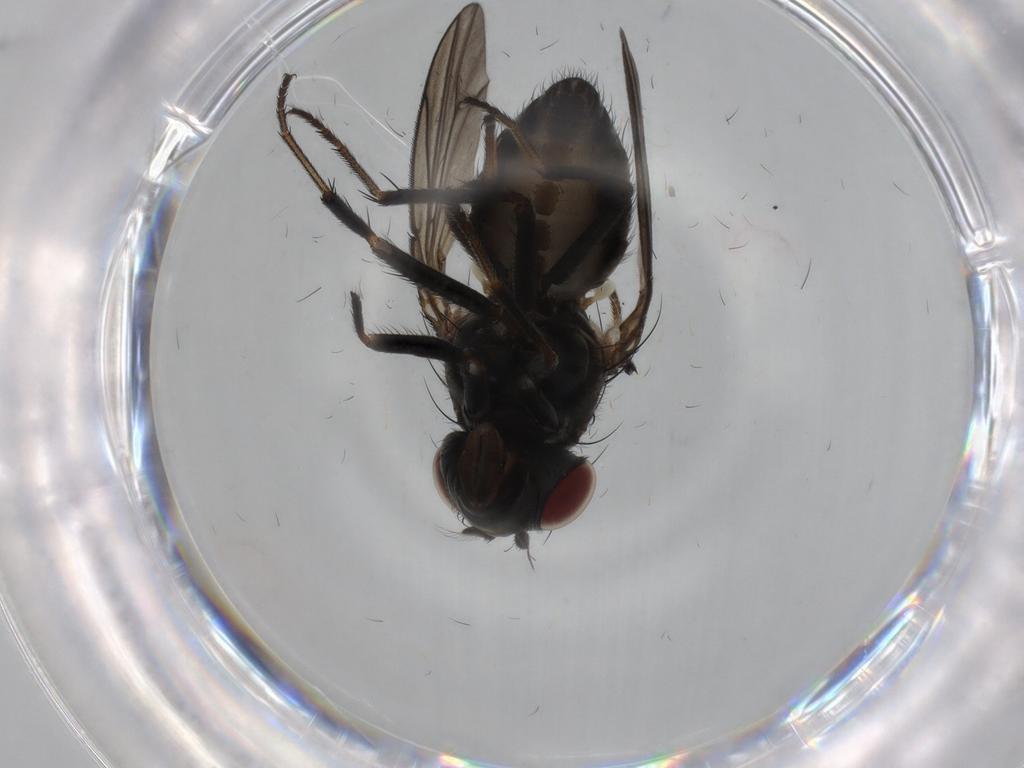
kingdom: Animalia
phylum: Arthropoda
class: Insecta
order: Diptera
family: Ephydridae
